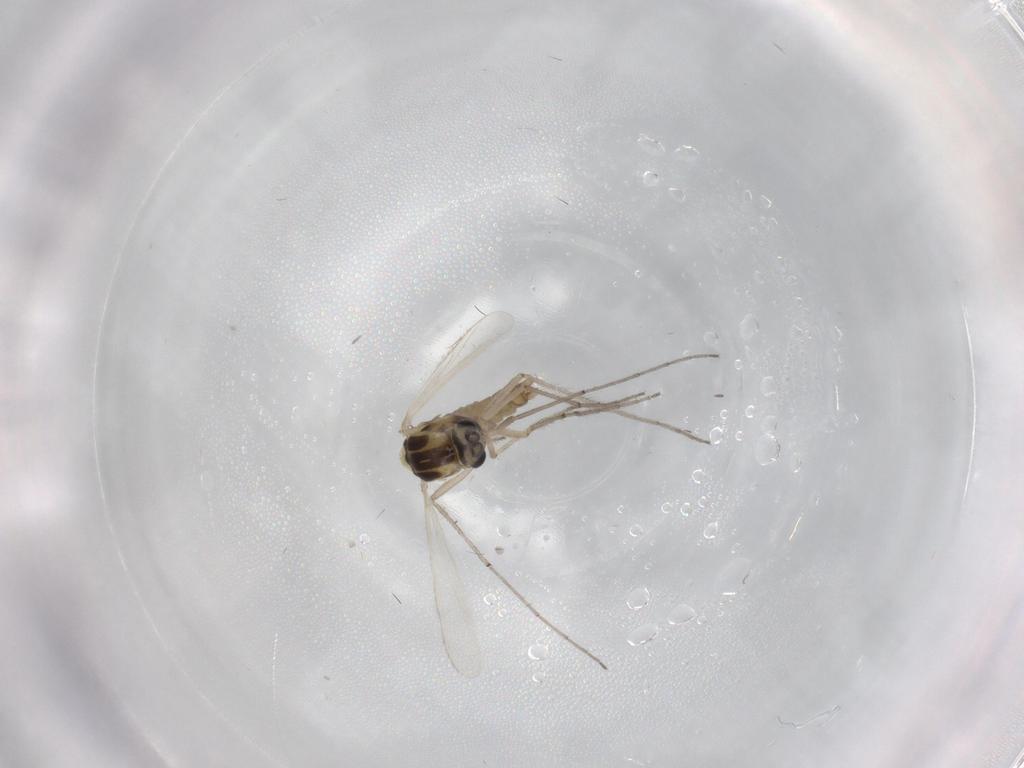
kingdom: Animalia
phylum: Arthropoda
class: Insecta
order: Diptera
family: Chironomidae
